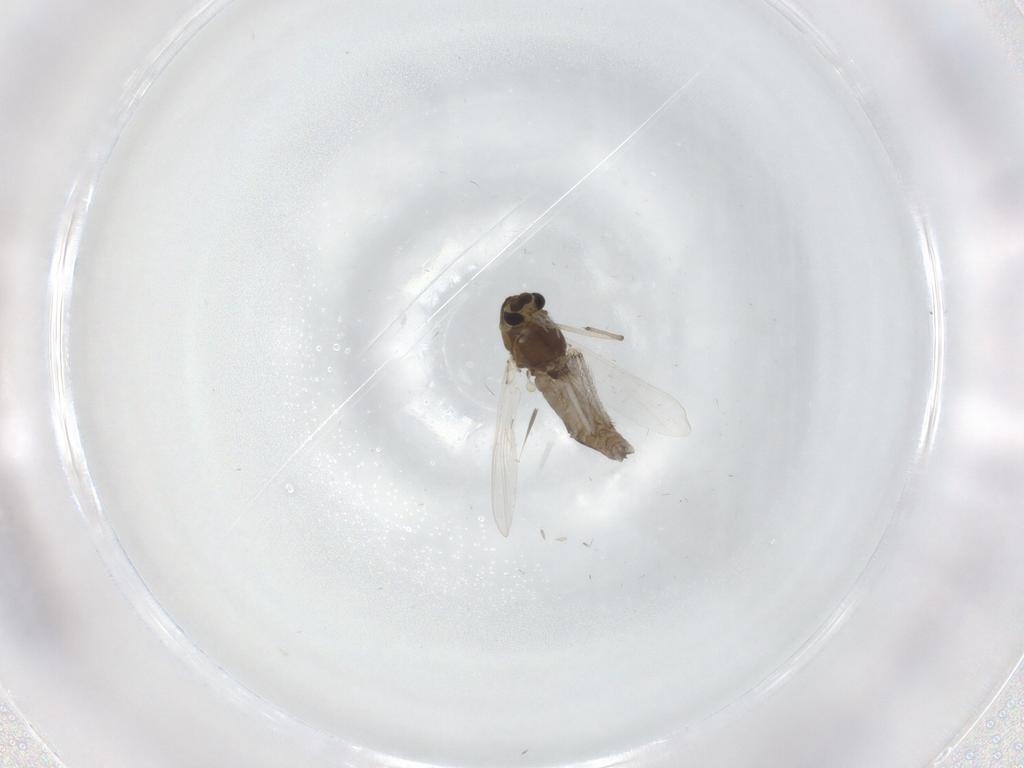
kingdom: Animalia
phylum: Arthropoda
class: Insecta
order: Diptera
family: Chironomidae
